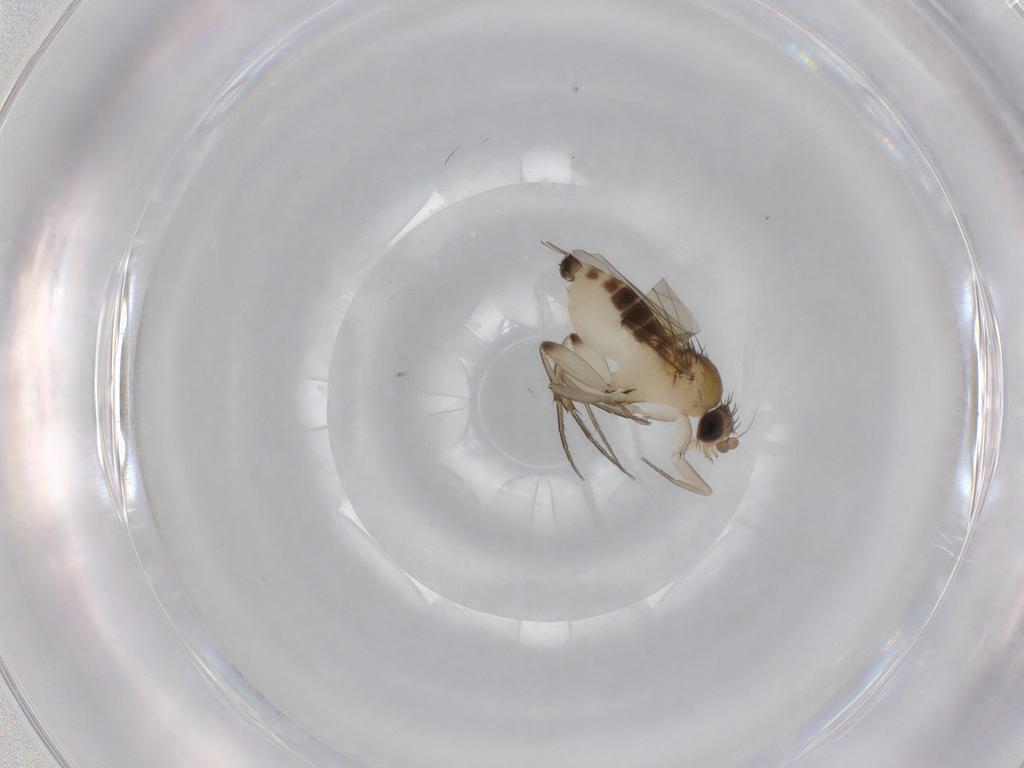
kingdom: Animalia
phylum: Arthropoda
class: Insecta
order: Diptera
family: Phoridae
